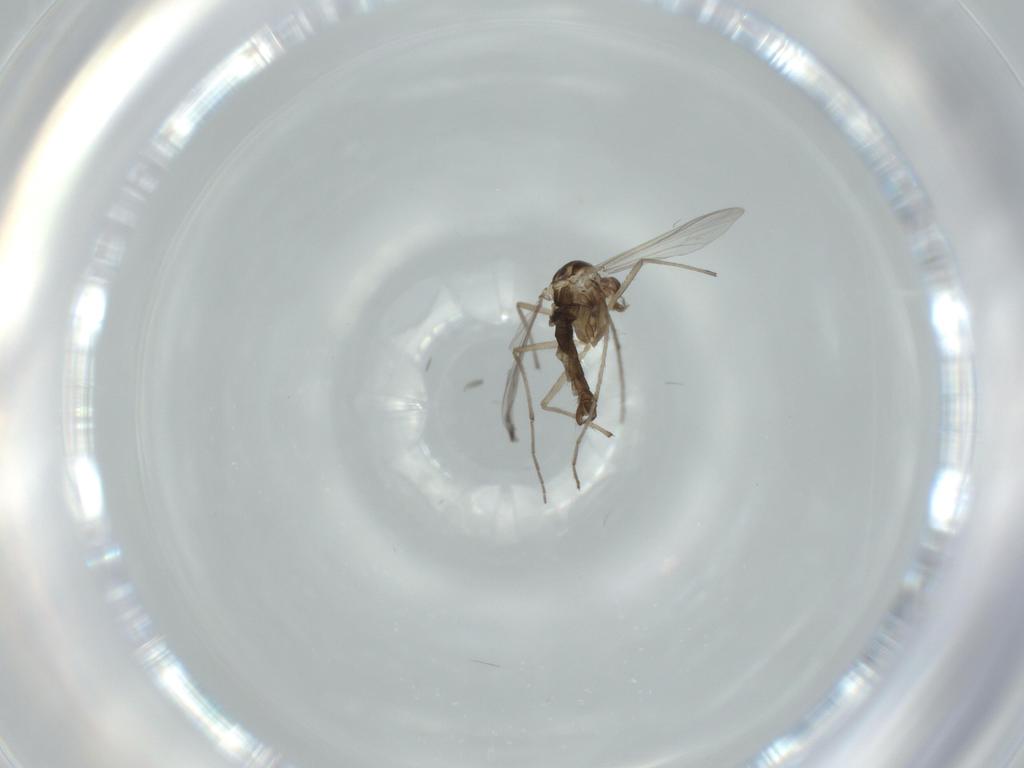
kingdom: Animalia
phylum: Arthropoda
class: Insecta
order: Diptera
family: Chironomidae
